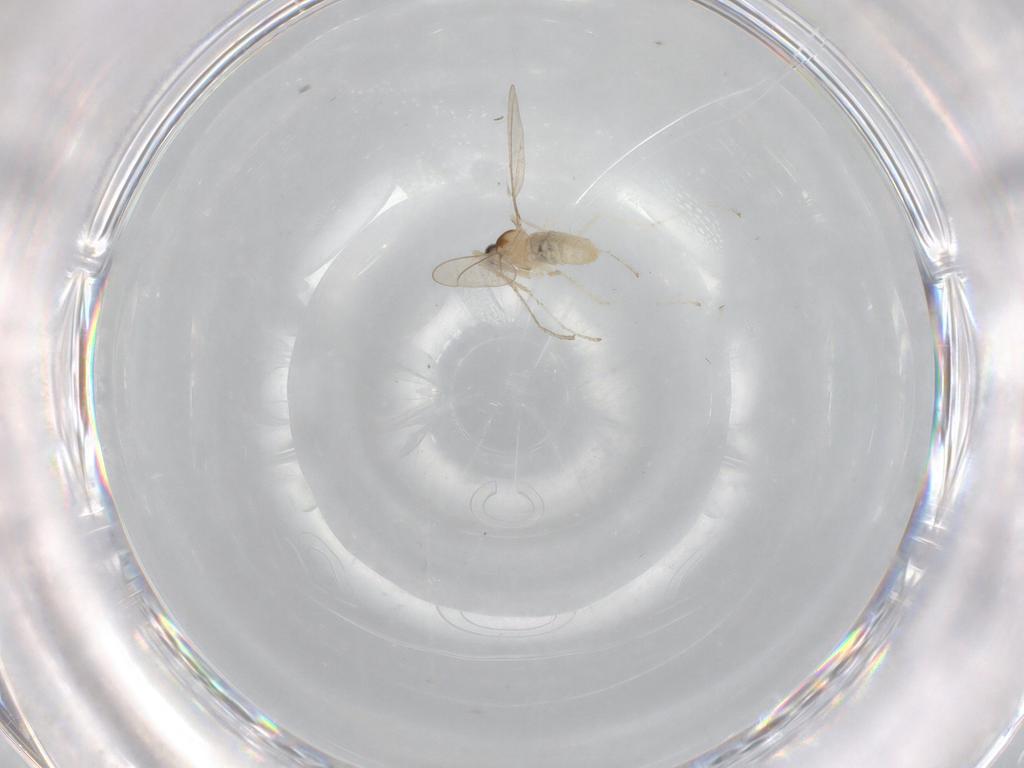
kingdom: Animalia
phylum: Arthropoda
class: Insecta
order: Diptera
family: Cecidomyiidae
